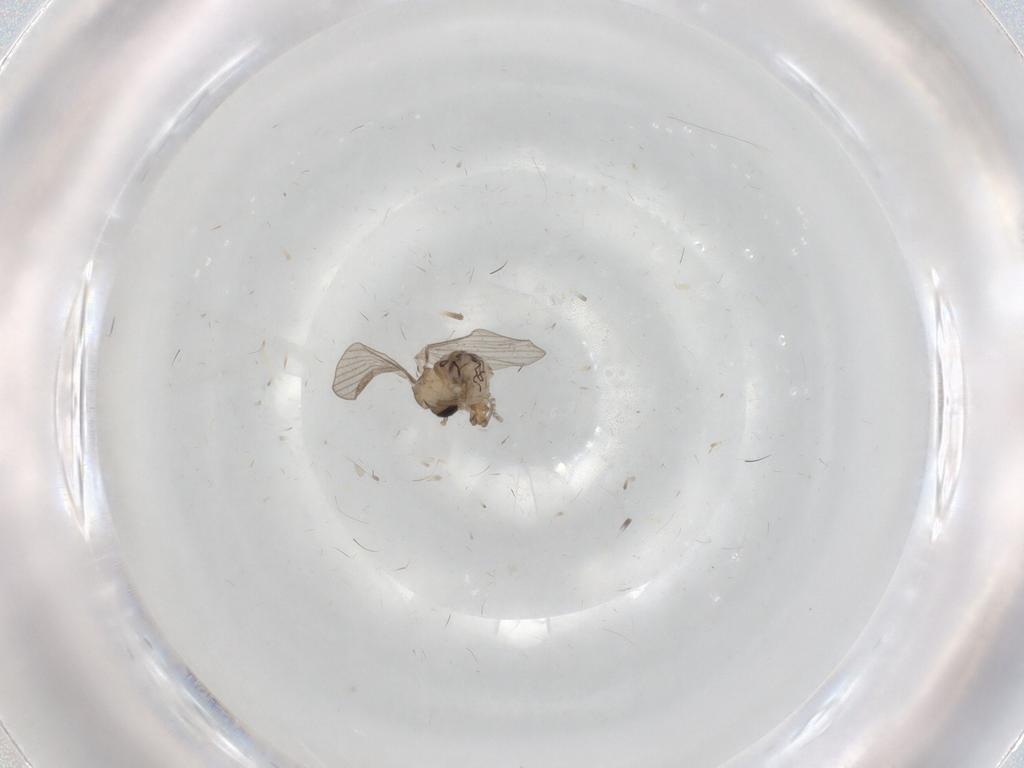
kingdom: Animalia
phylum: Arthropoda
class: Insecta
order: Diptera
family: Psychodidae
